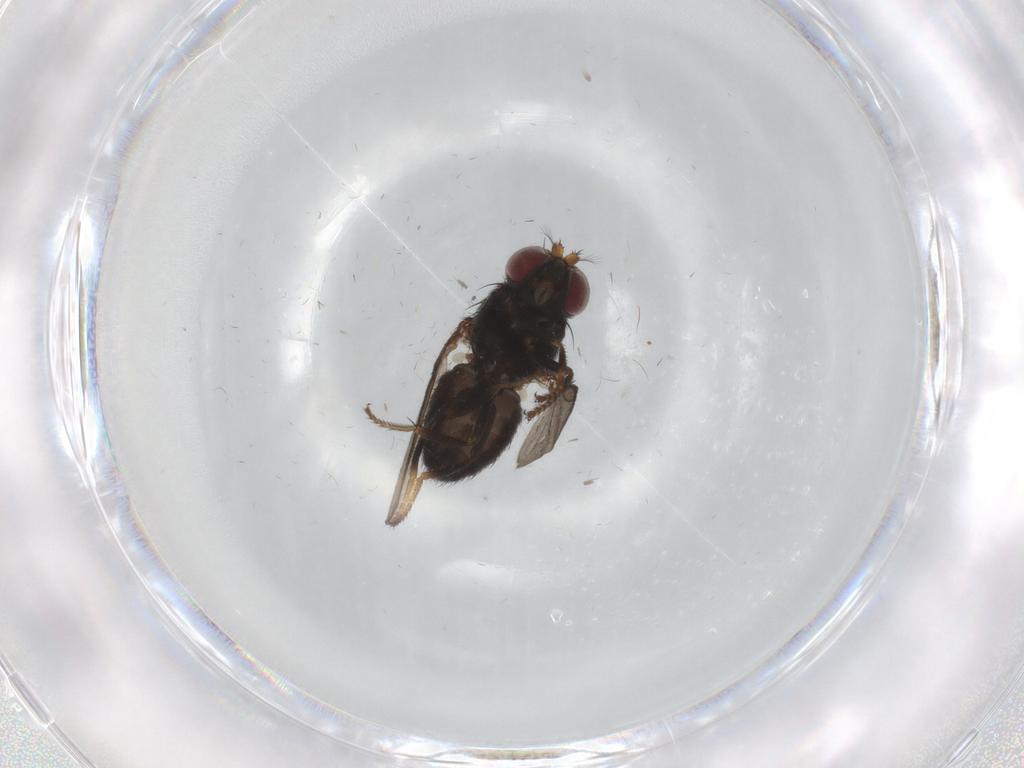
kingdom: Animalia
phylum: Arthropoda
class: Insecta
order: Diptera
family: Ephydridae
